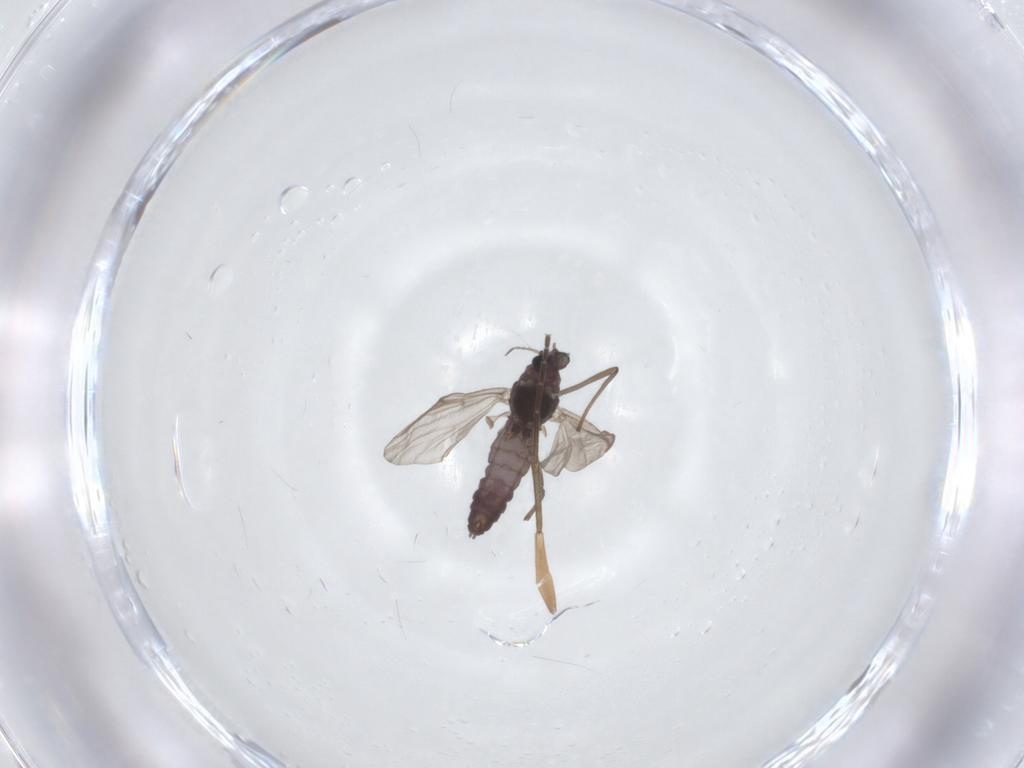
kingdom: Animalia
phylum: Arthropoda
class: Insecta
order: Diptera
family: Chironomidae
